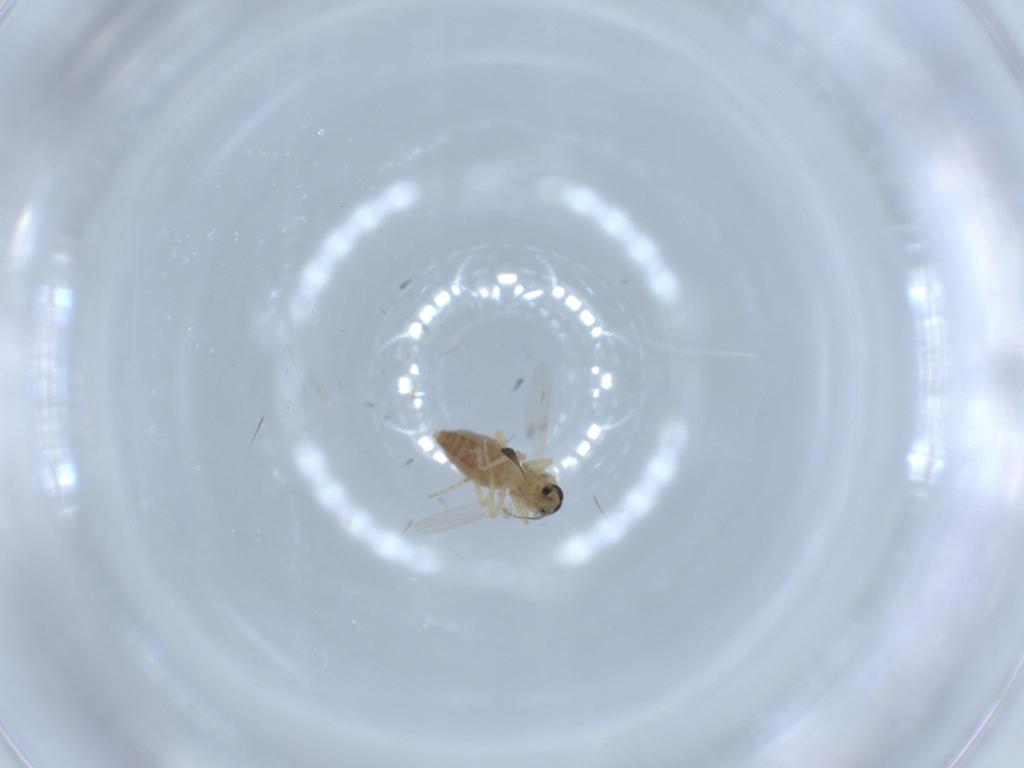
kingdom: Animalia
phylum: Arthropoda
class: Insecta
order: Diptera
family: Ceratopogonidae
